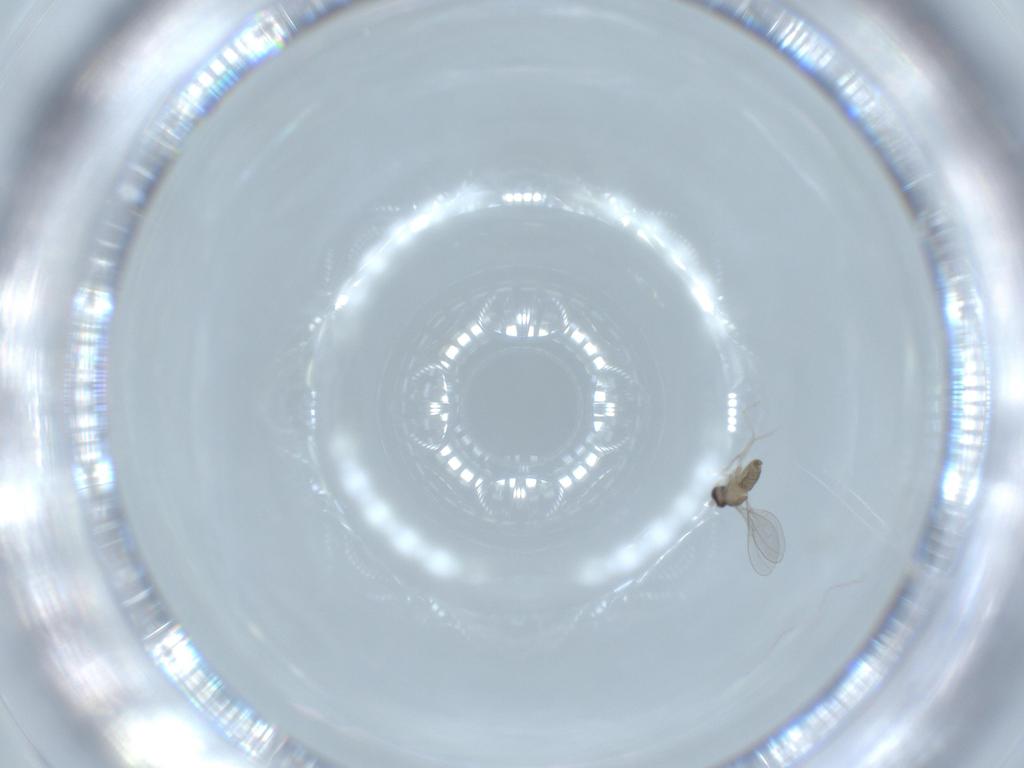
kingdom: Animalia
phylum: Arthropoda
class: Insecta
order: Diptera
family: Cecidomyiidae
